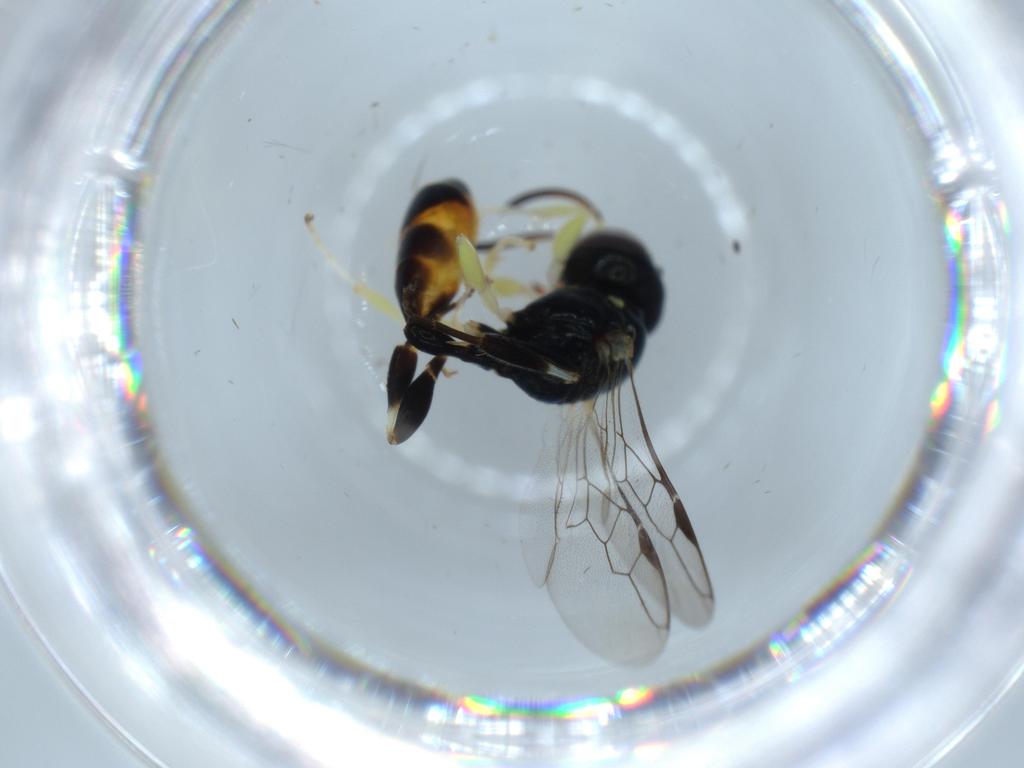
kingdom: Animalia
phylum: Arthropoda
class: Insecta
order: Hymenoptera
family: Crabronidae
